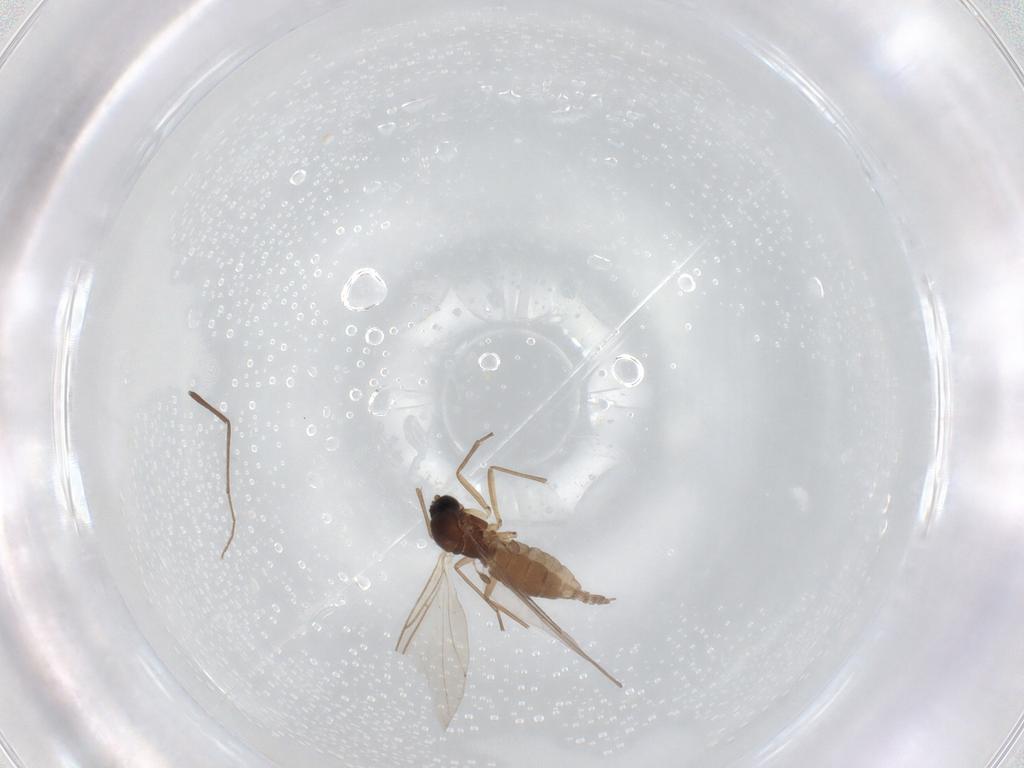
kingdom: Animalia
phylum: Arthropoda
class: Insecta
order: Diptera
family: Sciaridae
